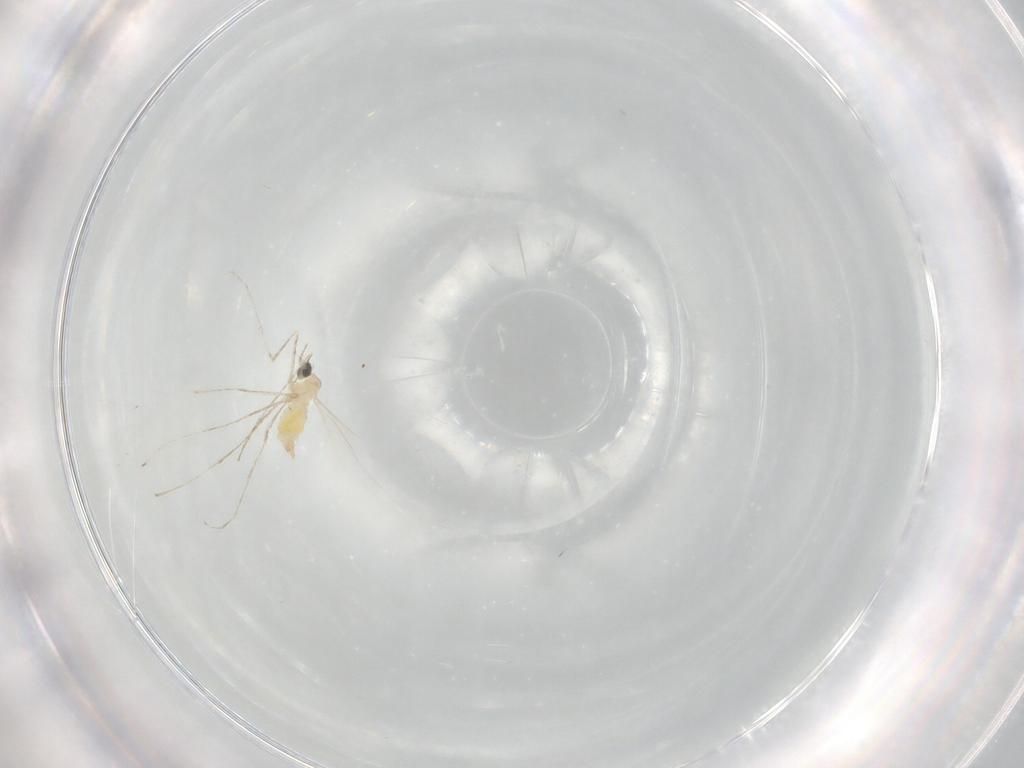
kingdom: Animalia
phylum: Arthropoda
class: Insecta
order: Diptera
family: Cecidomyiidae
